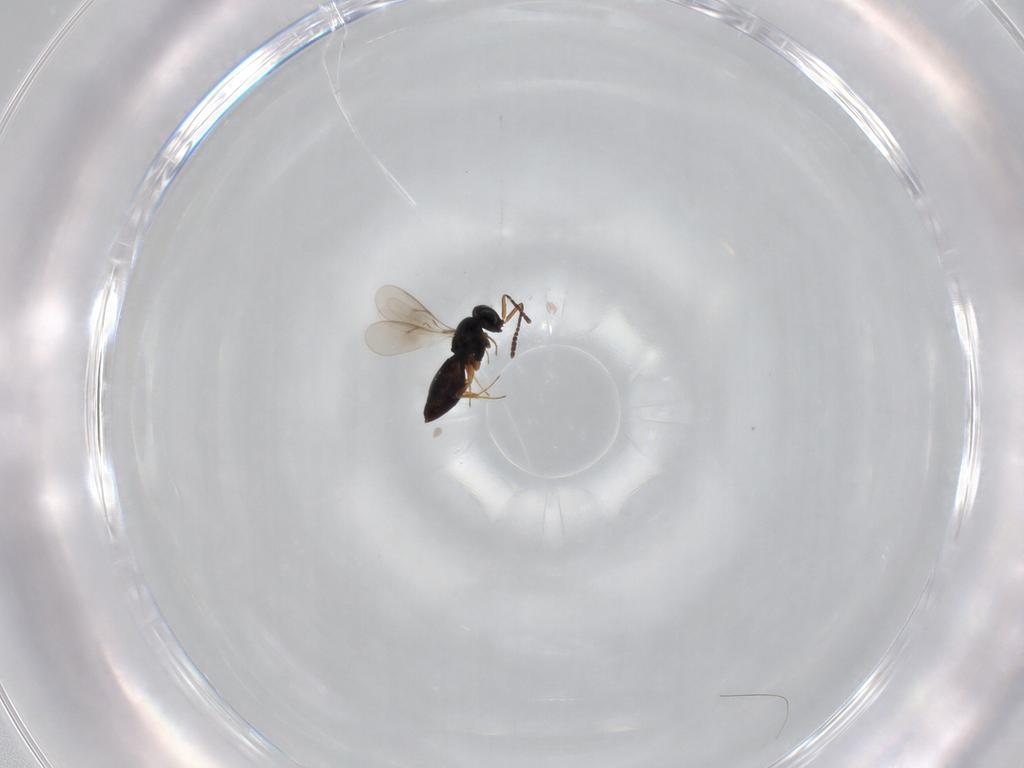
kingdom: Animalia
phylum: Arthropoda
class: Insecta
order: Hymenoptera
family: Scelionidae
